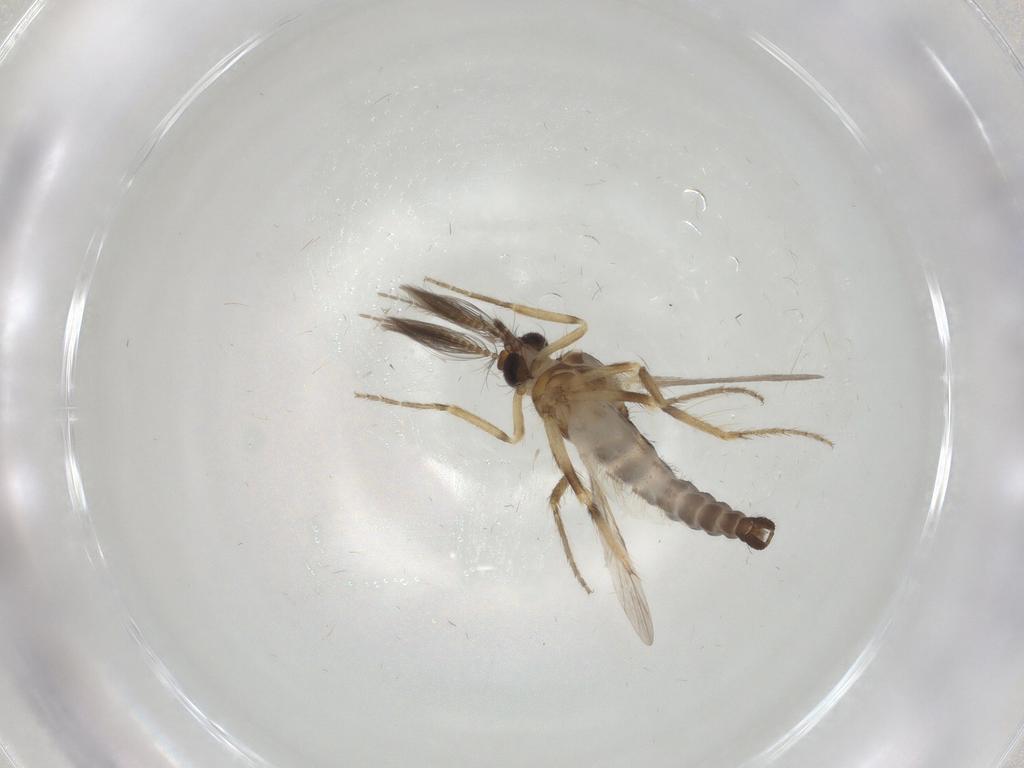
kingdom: Animalia
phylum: Arthropoda
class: Insecta
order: Diptera
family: Ceratopogonidae
